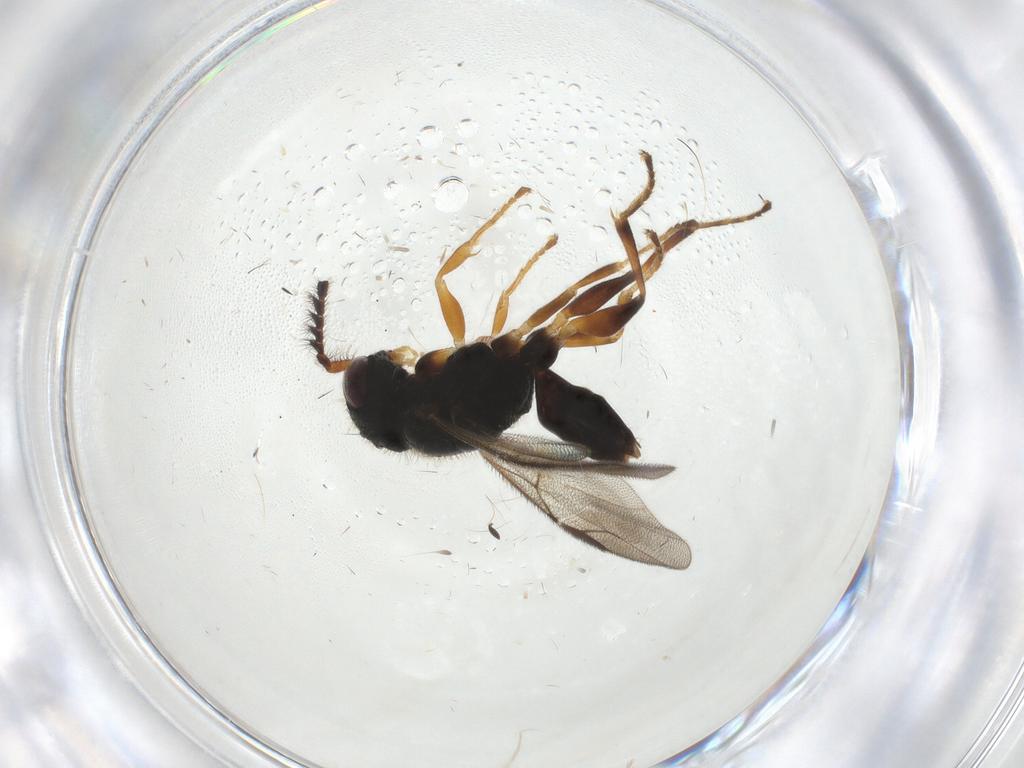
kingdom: Animalia
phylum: Arthropoda
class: Insecta
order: Hymenoptera
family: Dryinidae
